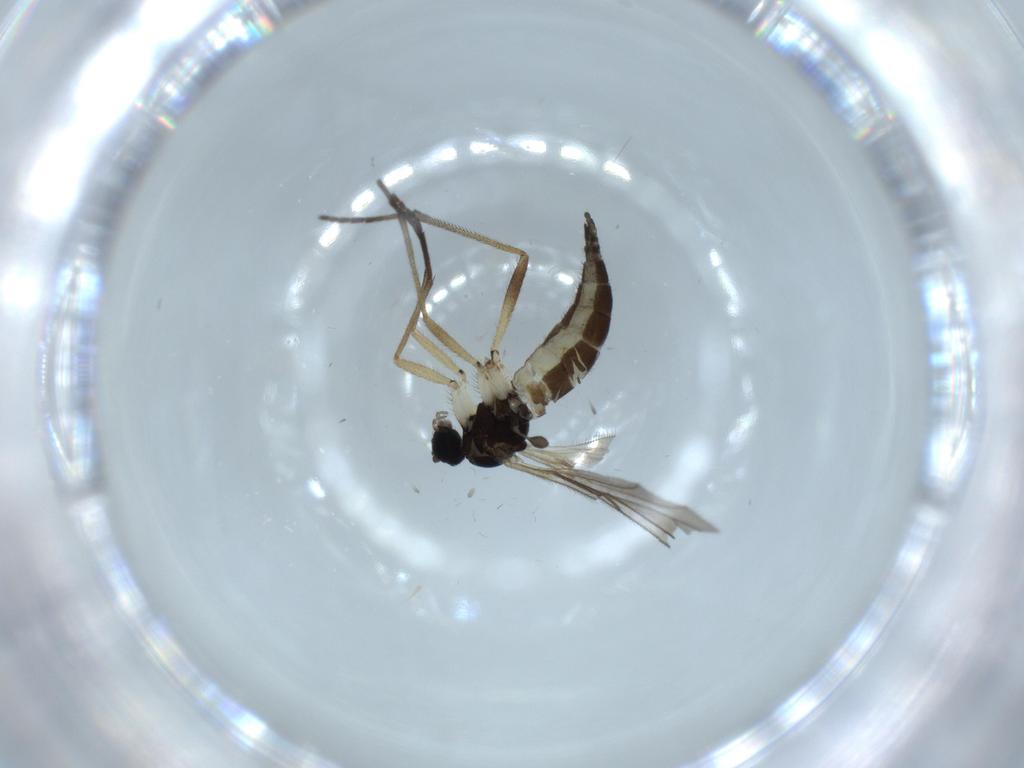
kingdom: Animalia
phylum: Arthropoda
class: Insecta
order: Diptera
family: Sciaridae
